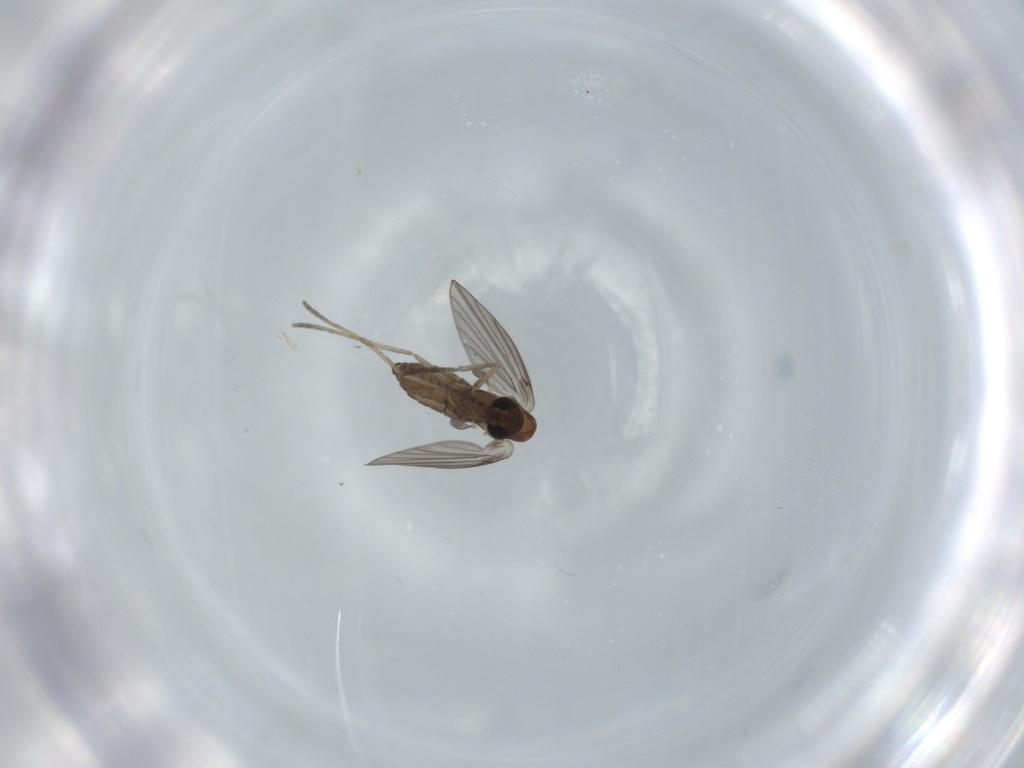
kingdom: Animalia
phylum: Arthropoda
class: Insecta
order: Diptera
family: Psychodidae
